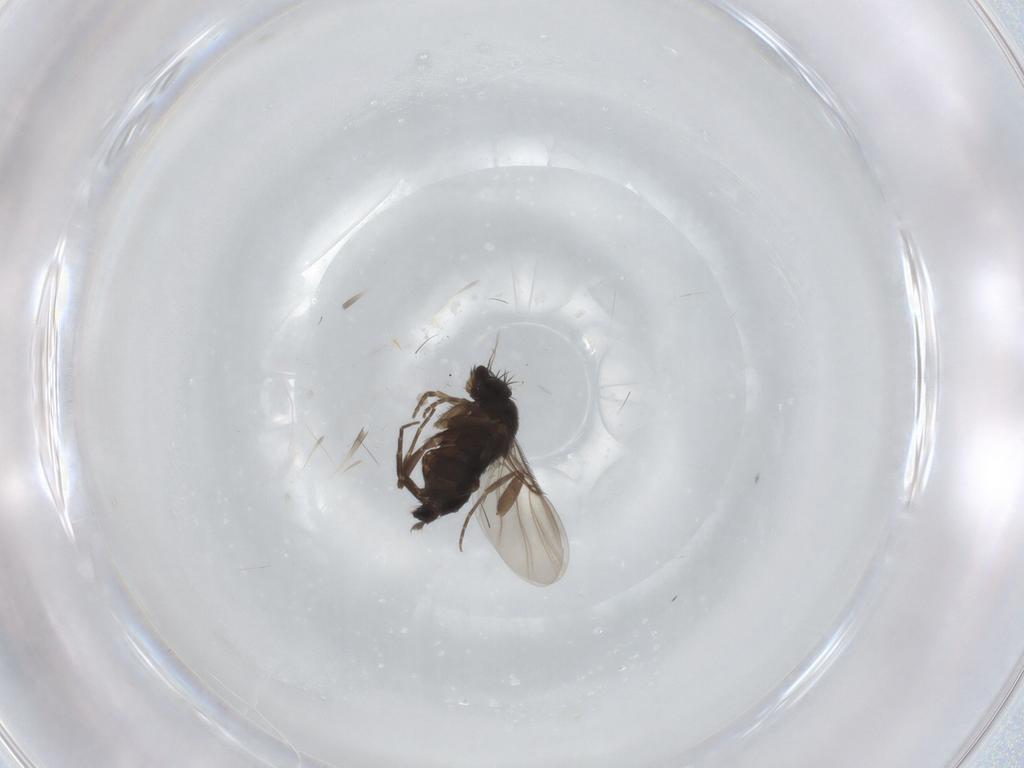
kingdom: Animalia
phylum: Arthropoda
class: Insecta
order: Diptera
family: Phoridae
